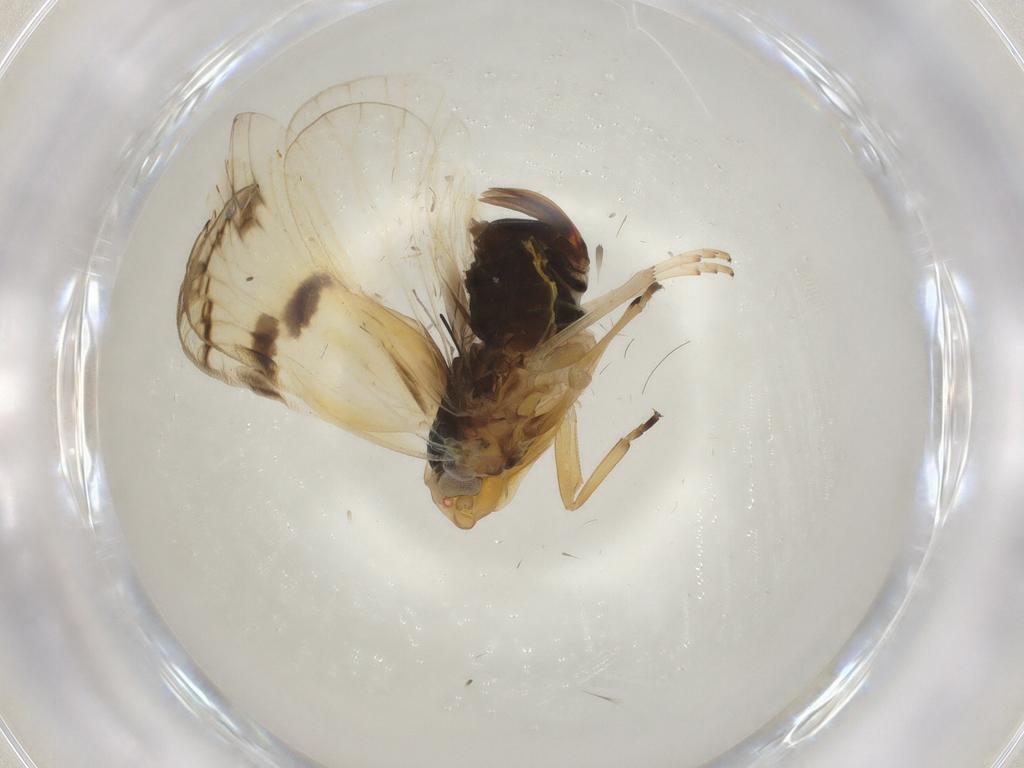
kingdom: Animalia
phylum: Arthropoda
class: Insecta
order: Hemiptera
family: Cixiidae
